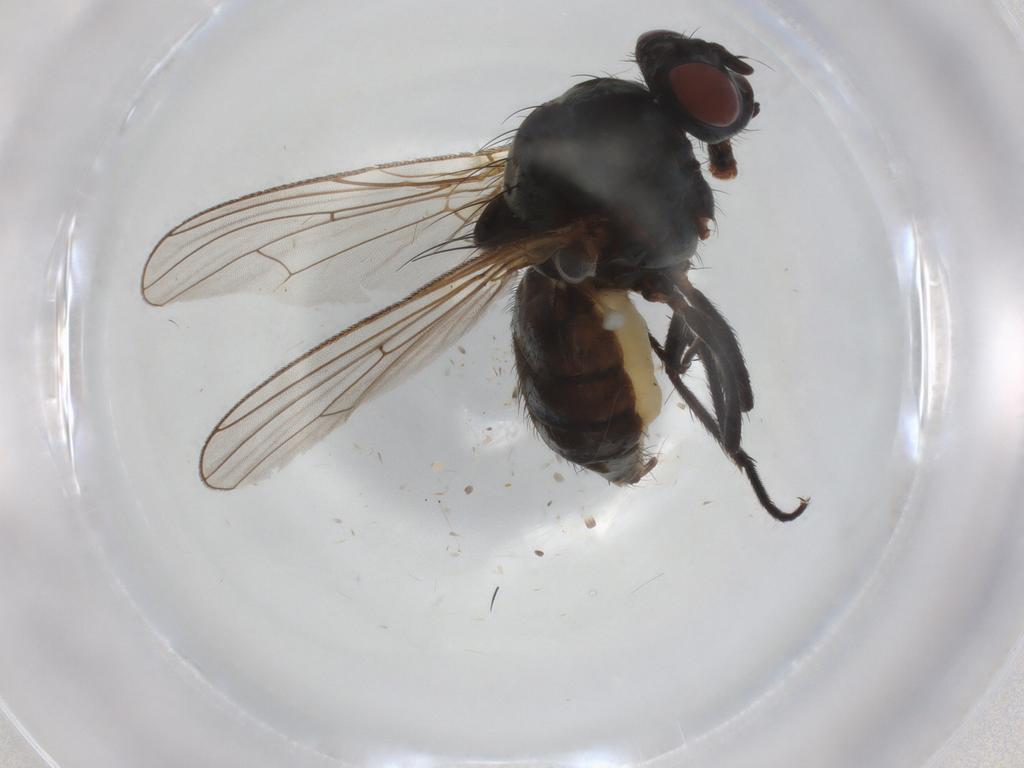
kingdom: Animalia
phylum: Arthropoda
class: Insecta
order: Diptera
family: Anthomyiidae
